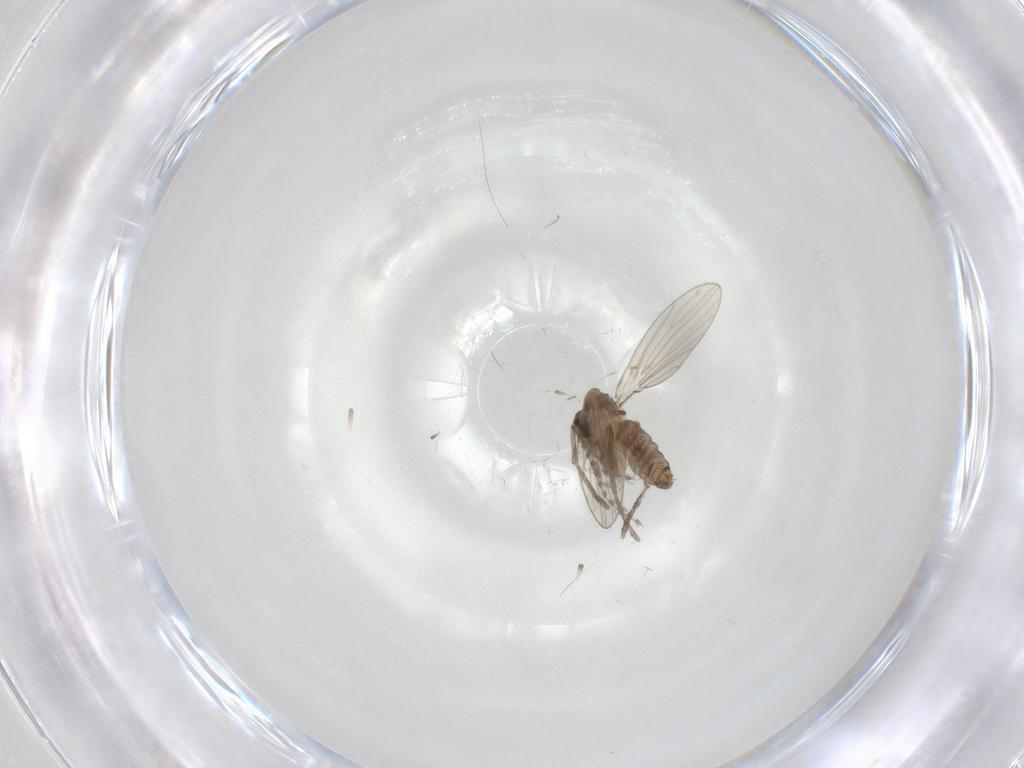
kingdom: Animalia
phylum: Arthropoda
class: Insecta
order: Diptera
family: Ceratopogonidae
